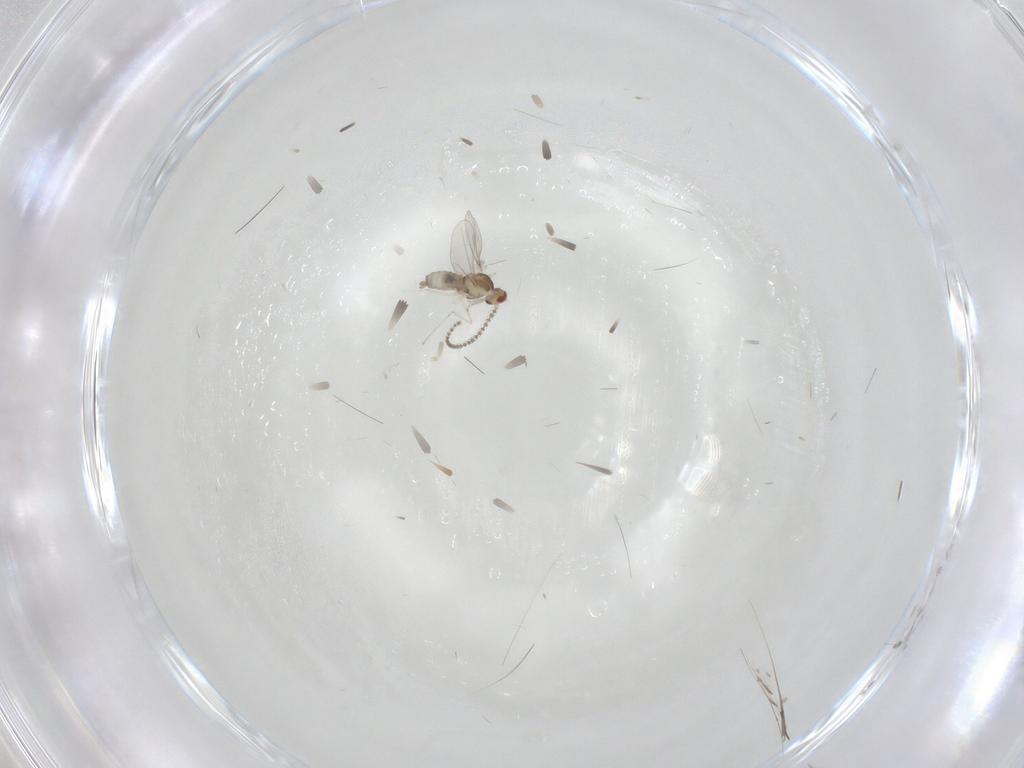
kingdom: Animalia
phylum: Arthropoda
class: Insecta
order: Diptera
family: Cecidomyiidae
